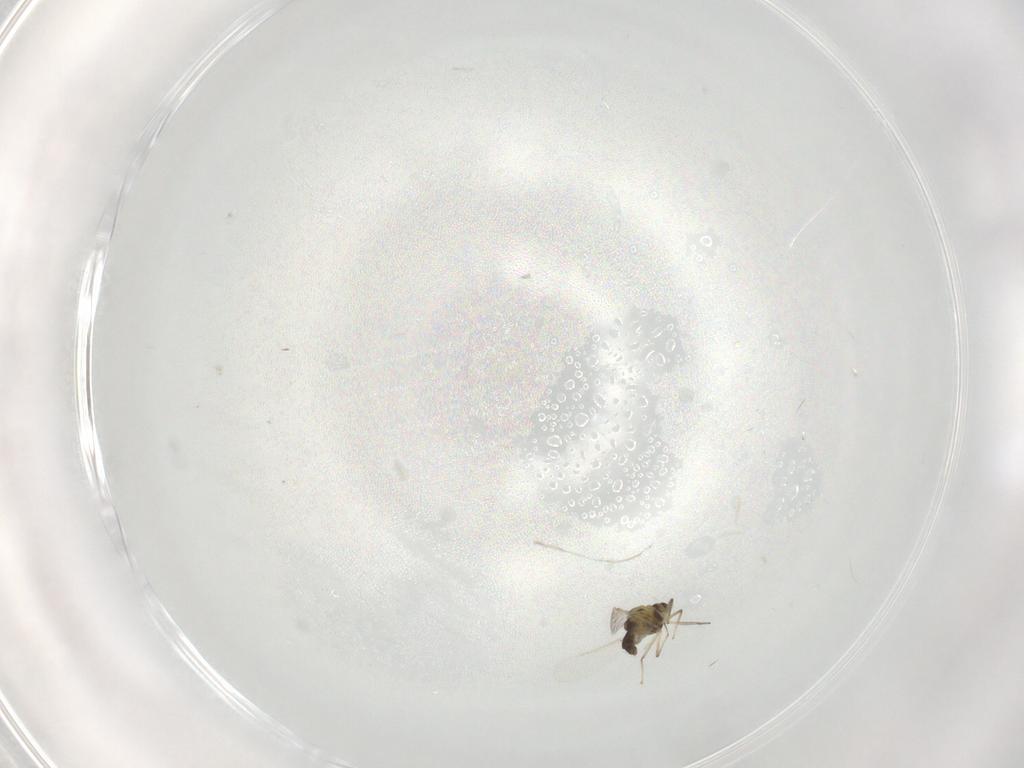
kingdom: Animalia
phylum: Arthropoda
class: Insecta
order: Diptera
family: Chironomidae
